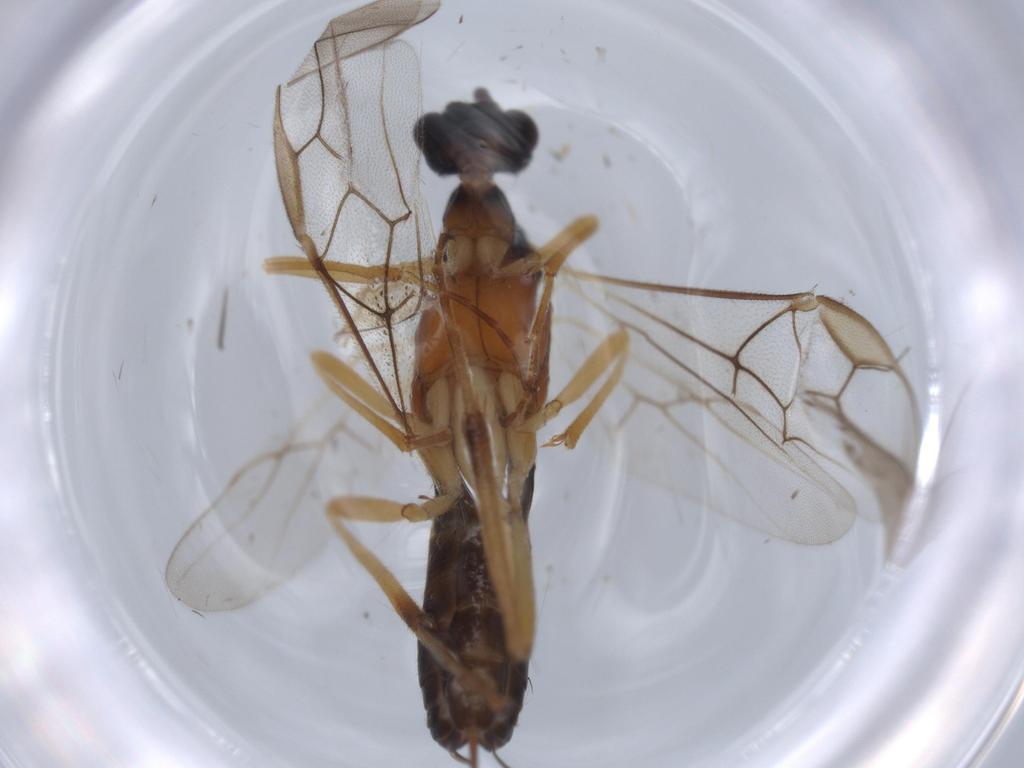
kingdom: Animalia
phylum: Arthropoda
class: Insecta
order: Hymenoptera
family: Braconidae
